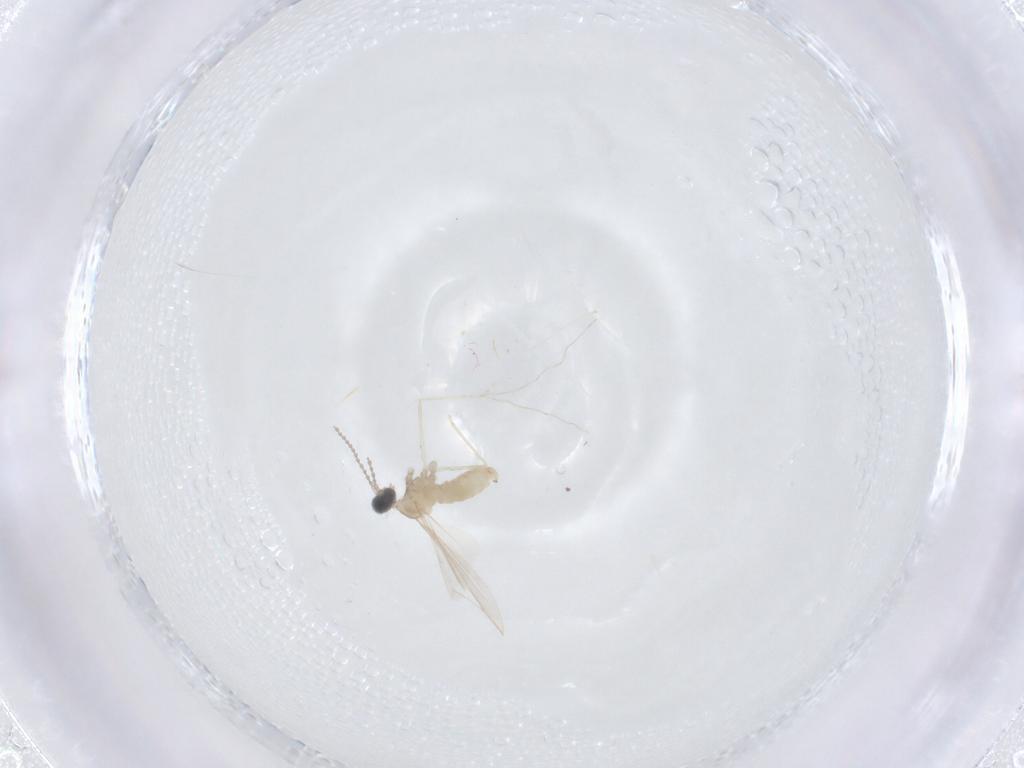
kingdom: Animalia
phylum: Arthropoda
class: Insecta
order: Diptera
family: Cecidomyiidae
